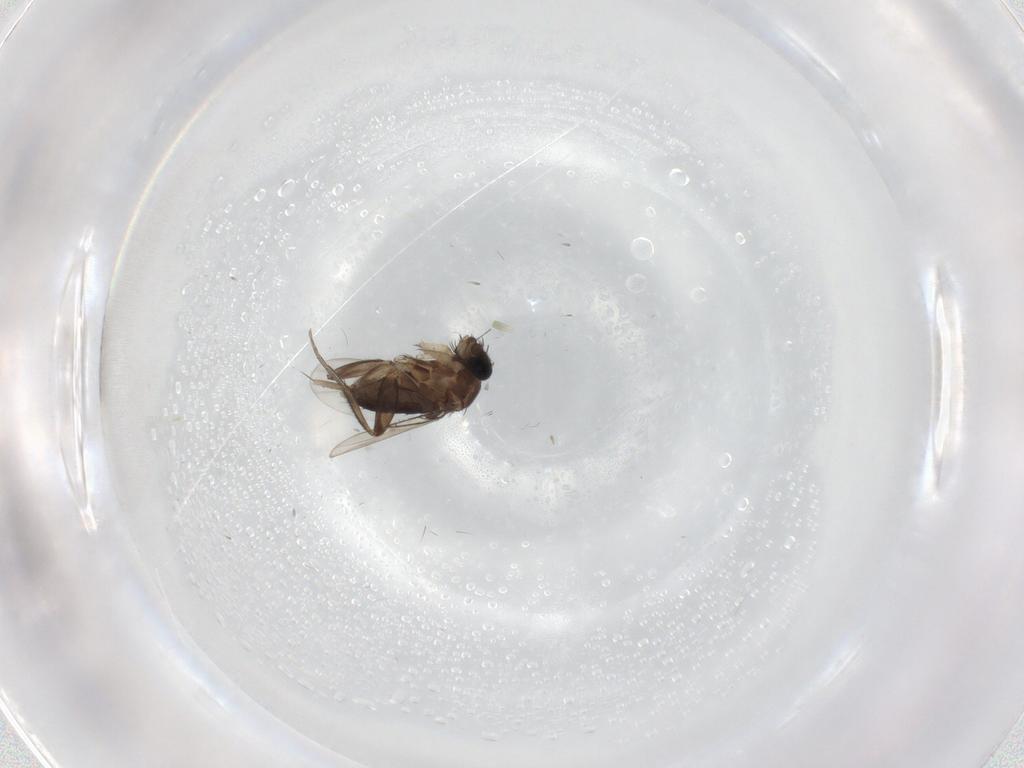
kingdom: Animalia
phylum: Arthropoda
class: Insecta
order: Diptera
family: Phoridae
